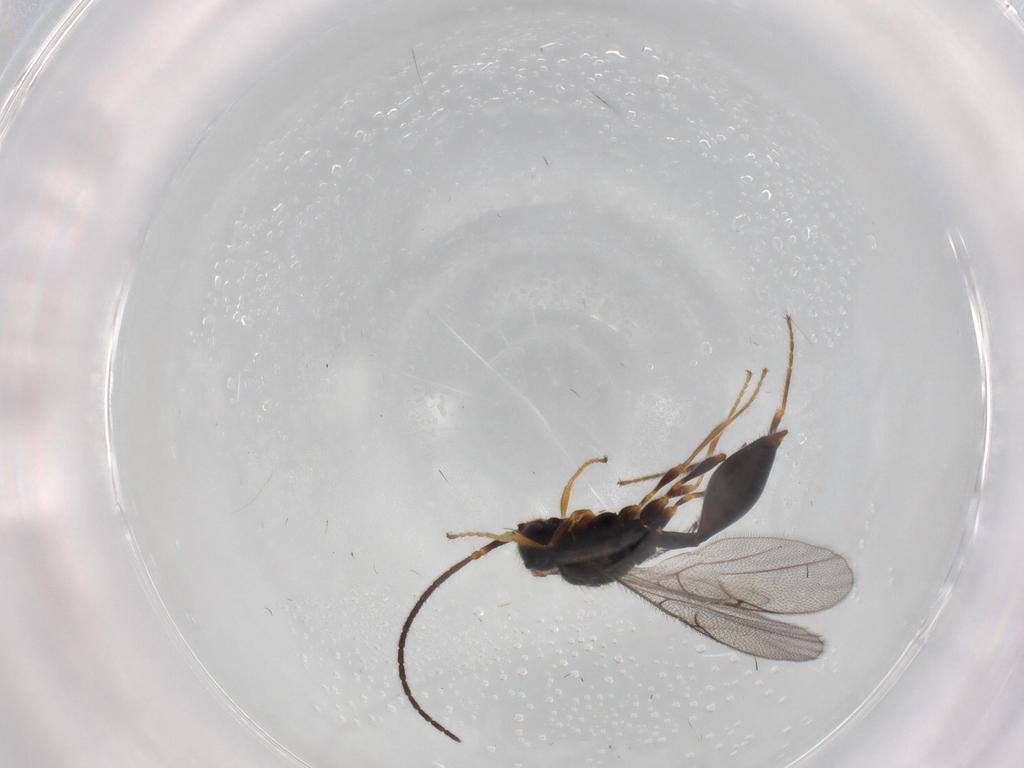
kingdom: Animalia
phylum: Arthropoda
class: Insecta
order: Hymenoptera
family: Diapriidae
